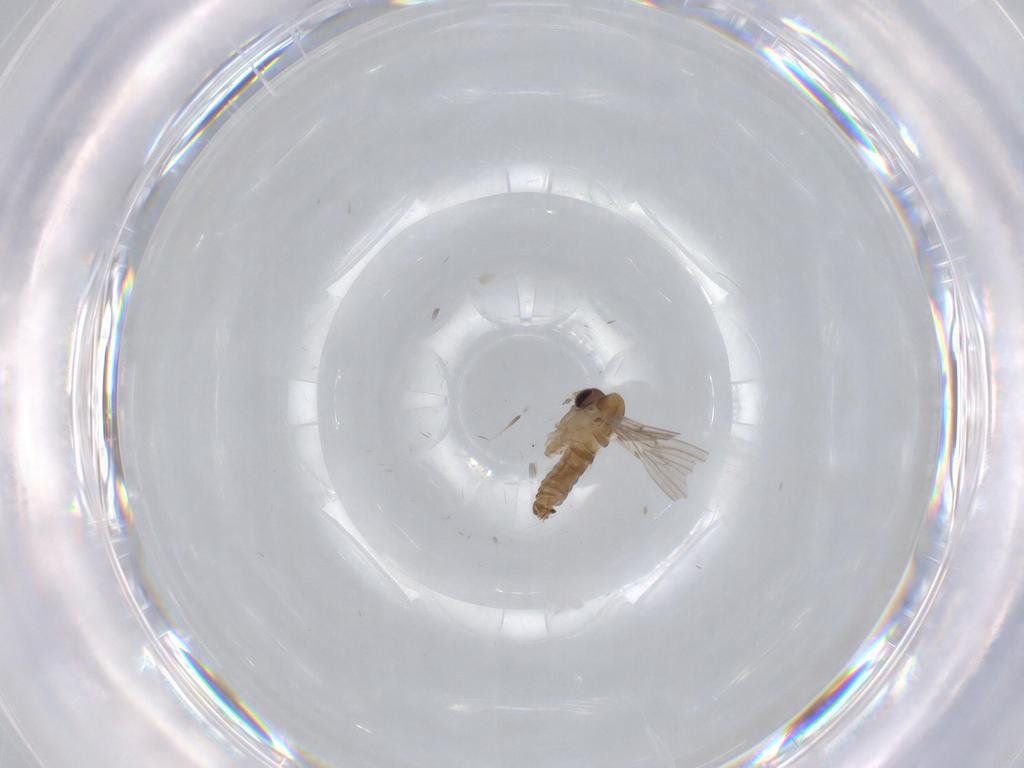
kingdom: Animalia
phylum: Arthropoda
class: Insecta
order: Diptera
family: Psychodidae
